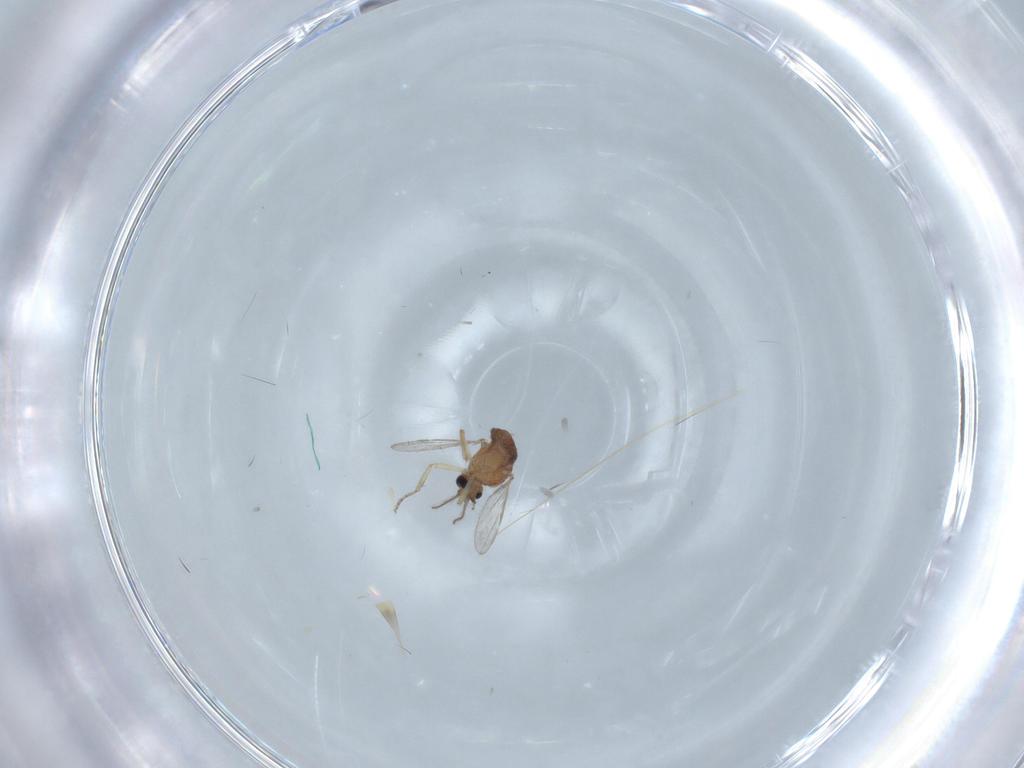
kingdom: Animalia
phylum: Arthropoda
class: Insecta
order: Diptera
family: Ceratopogonidae
